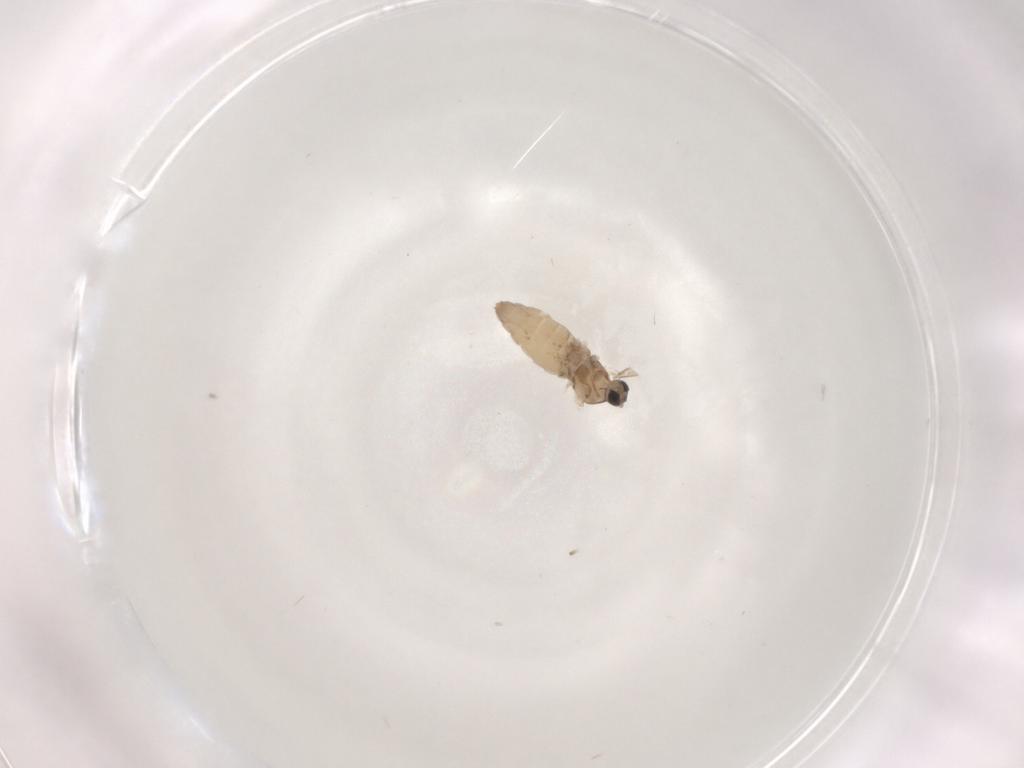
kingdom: Animalia
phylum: Arthropoda
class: Insecta
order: Diptera
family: Cecidomyiidae
